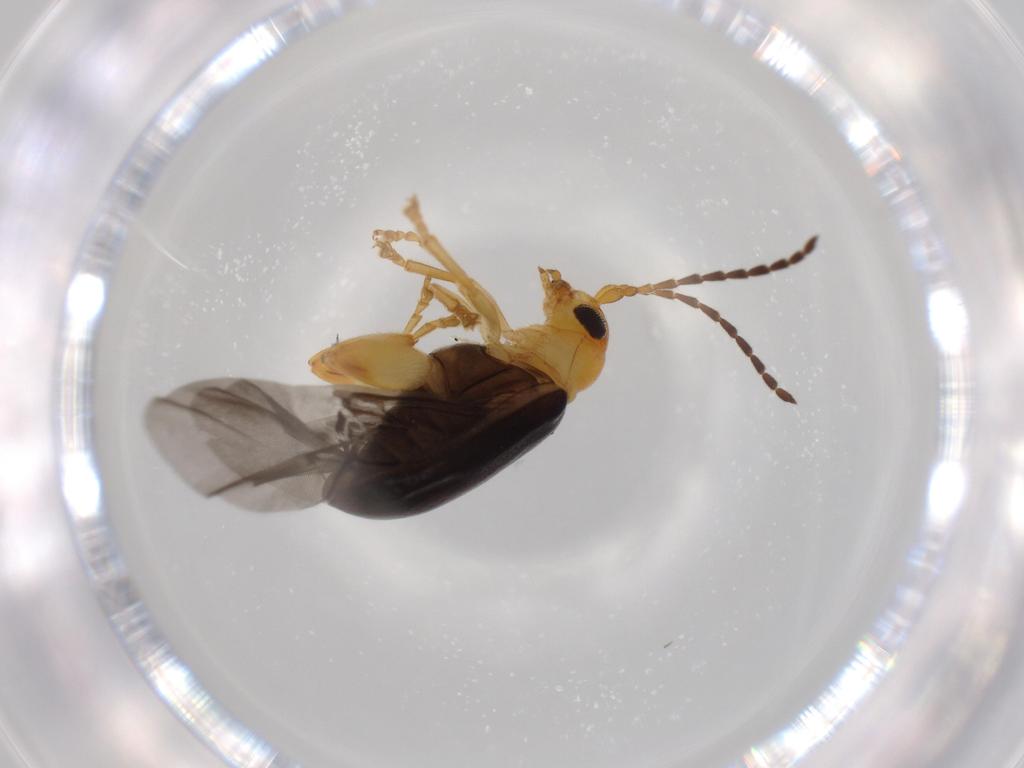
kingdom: Animalia
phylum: Arthropoda
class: Insecta
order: Coleoptera
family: Chrysomelidae
